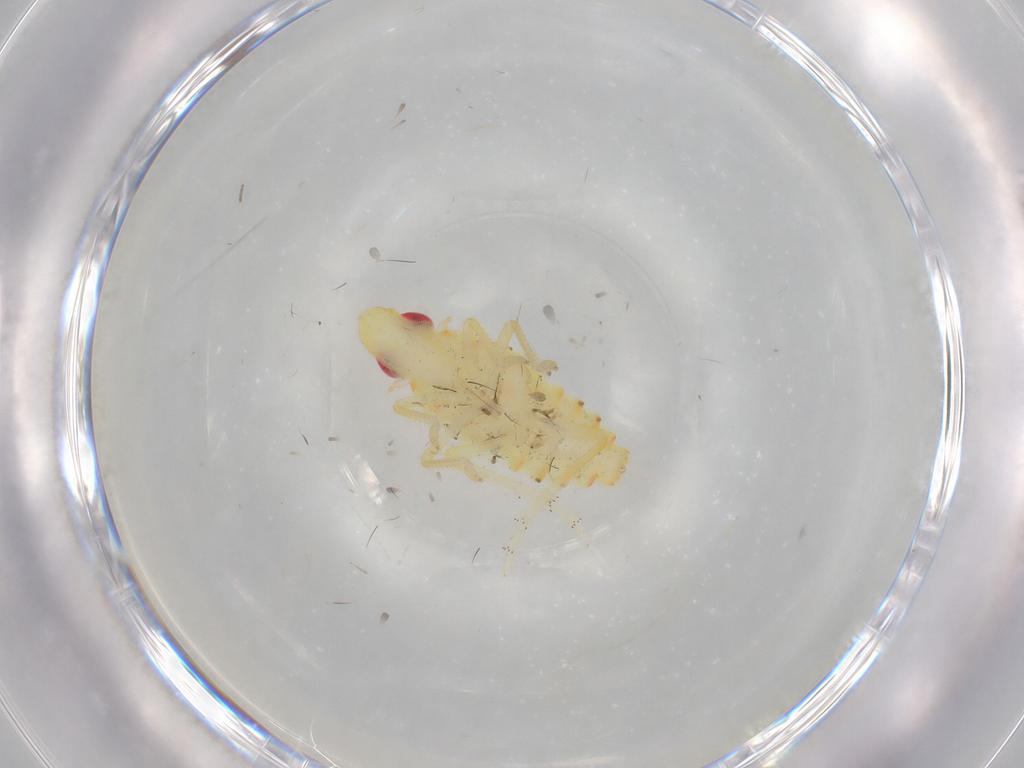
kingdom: Animalia
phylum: Arthropoda
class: Insecta
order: Hemiptera
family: Tropiduchidae
